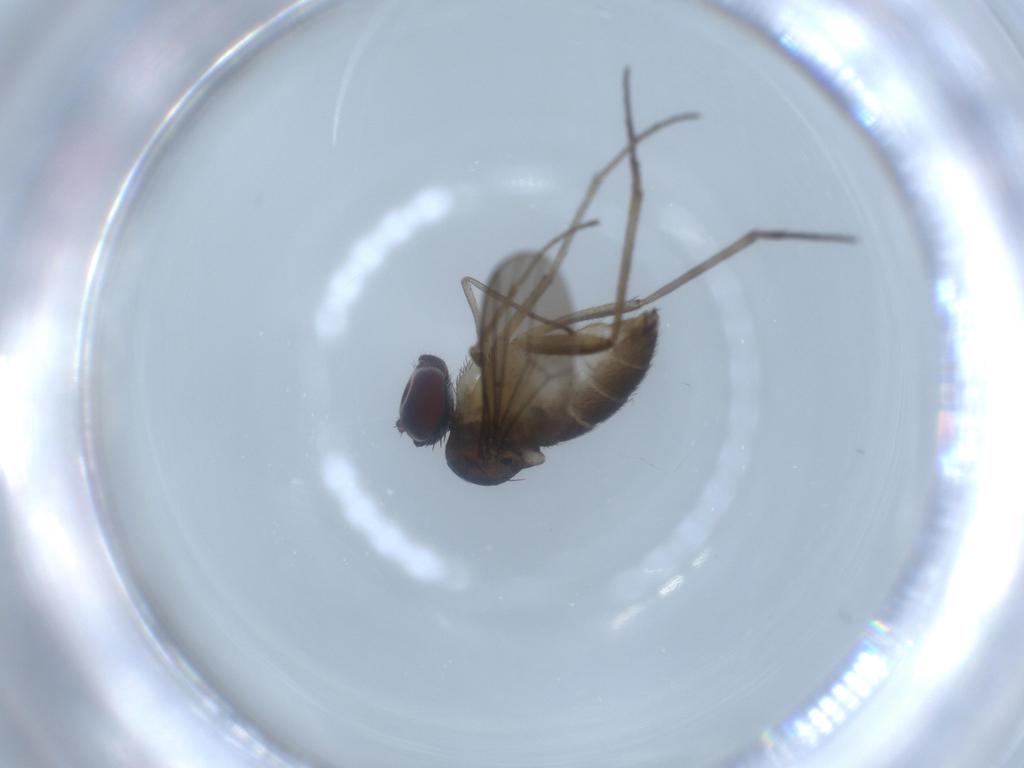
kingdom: Animalia
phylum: Arthropoda
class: Insecta
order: Diptera
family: Dolichopodidae
